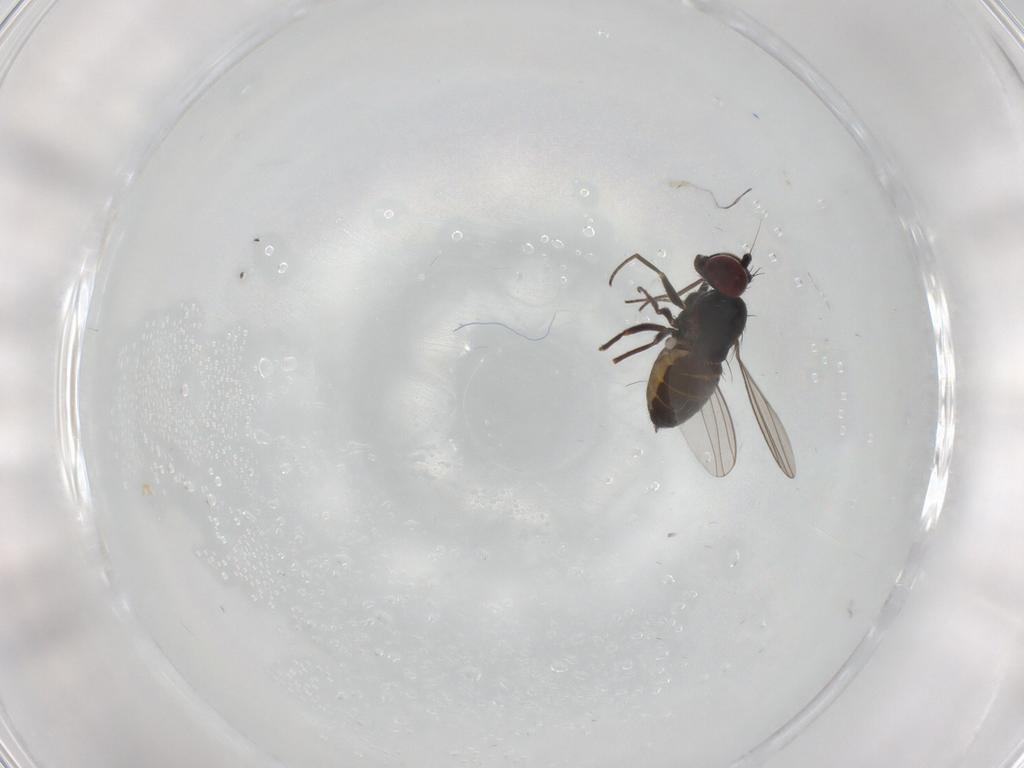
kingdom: Animalia
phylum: Arthropoda
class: Insecta
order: Diptera
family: Dolichopodidae
